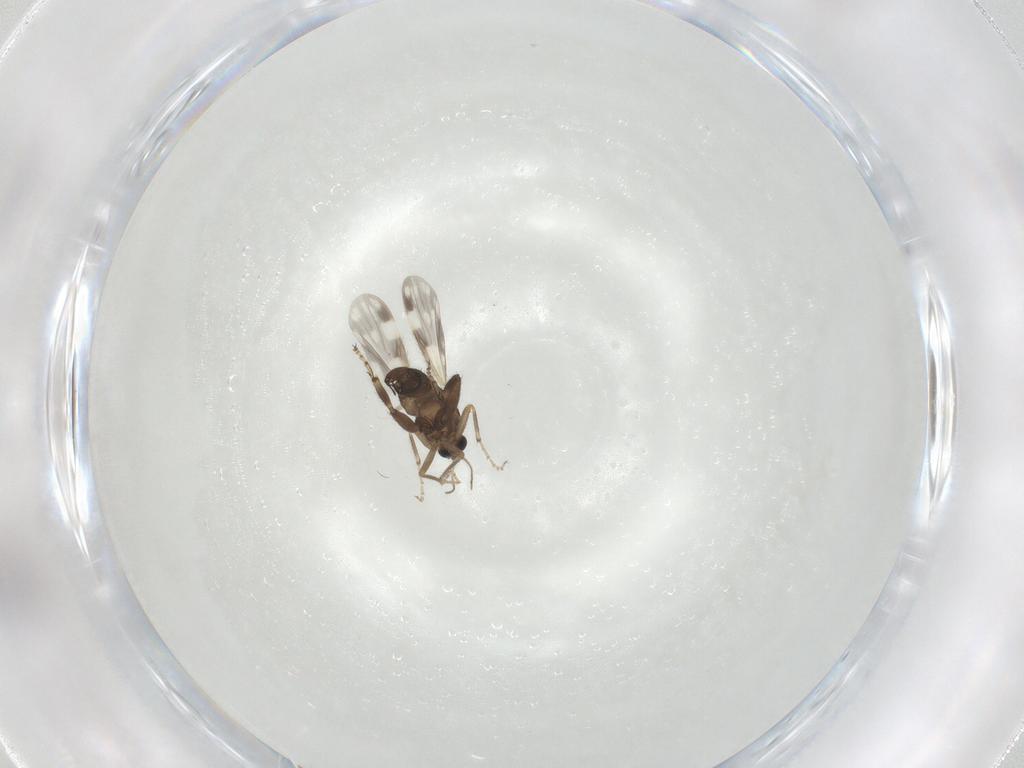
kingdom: Animalia
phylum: Arthropoda
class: Insecta
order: Diptera
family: Ceratopogonidae
